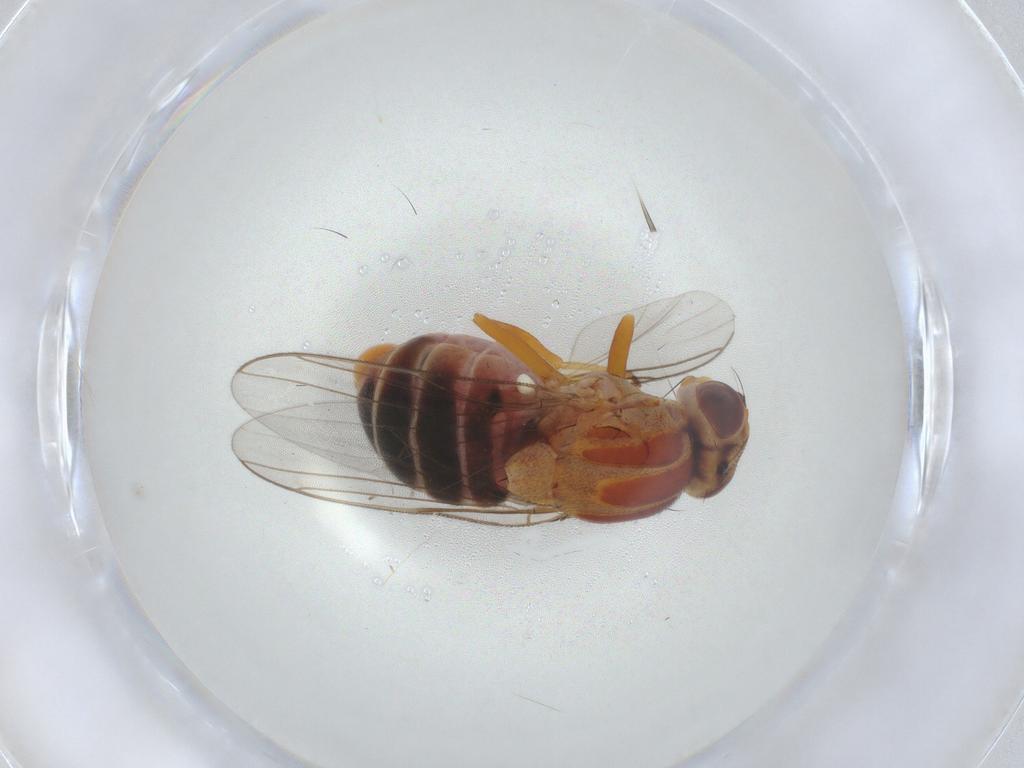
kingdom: Animalia
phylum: Arthropoda
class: Insecta
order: Diptera
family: Chloropidae
